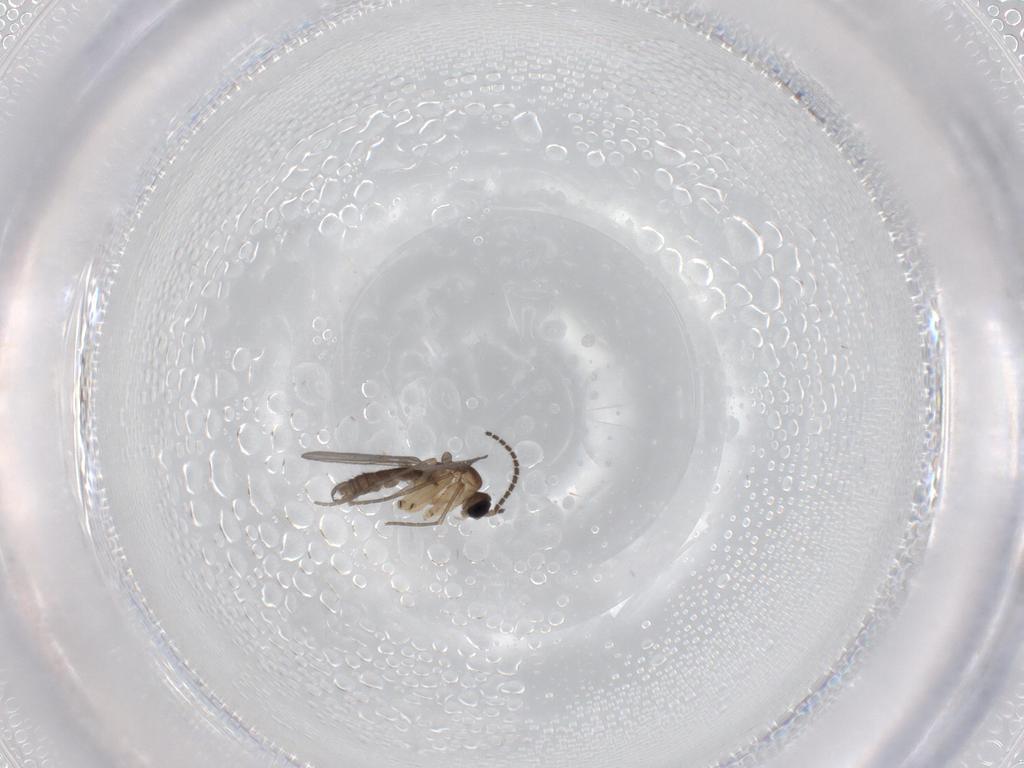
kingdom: Animalia
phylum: Arthropoda
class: Insecta
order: Diptera
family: Sciaridae
